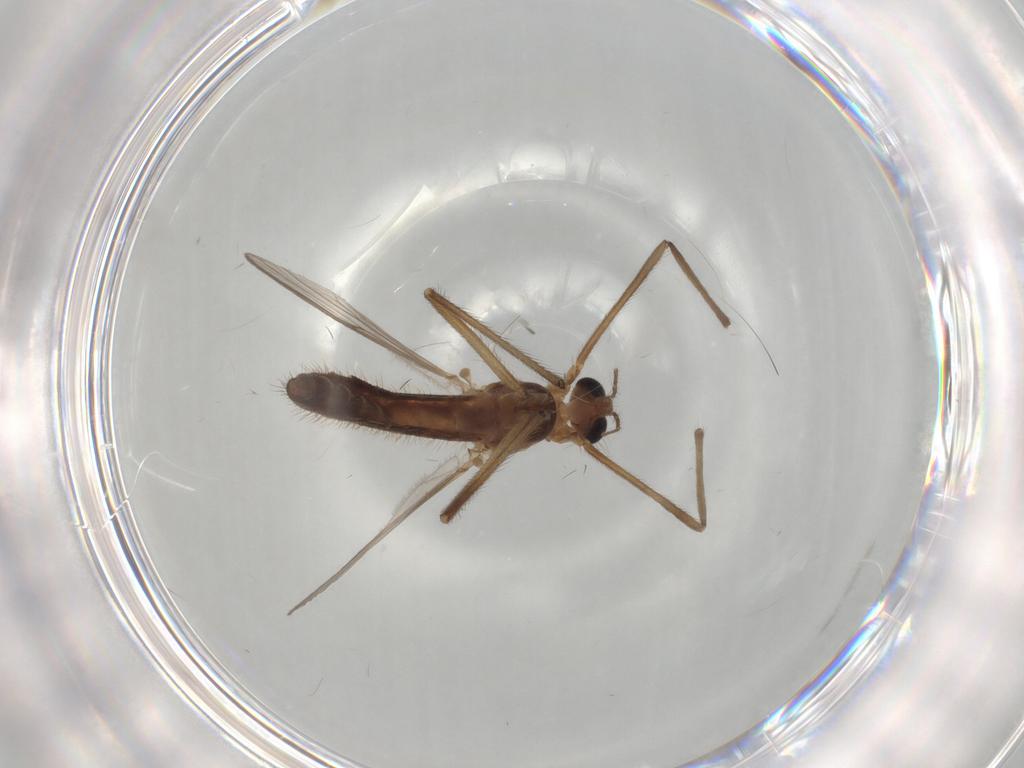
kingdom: Animalia
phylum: Arthropoda
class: Insecta
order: Diptera
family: Chironomidae
